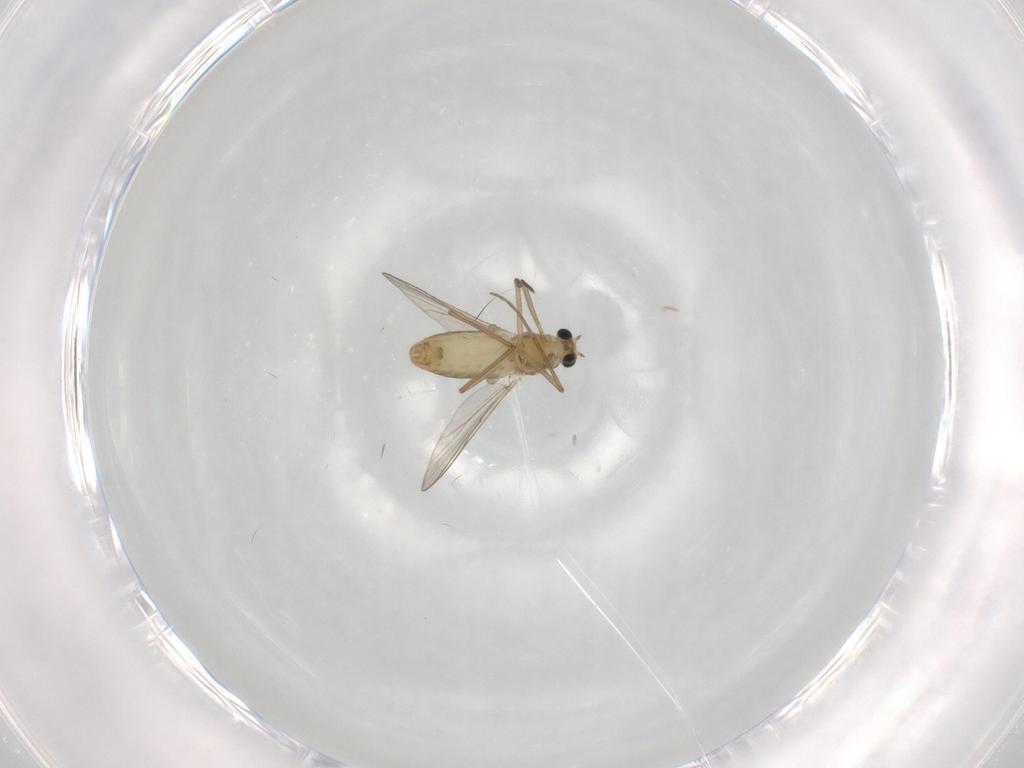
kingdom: Animalia
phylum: Arthropoda
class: Insecta
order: Diptera
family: Chironomidae
